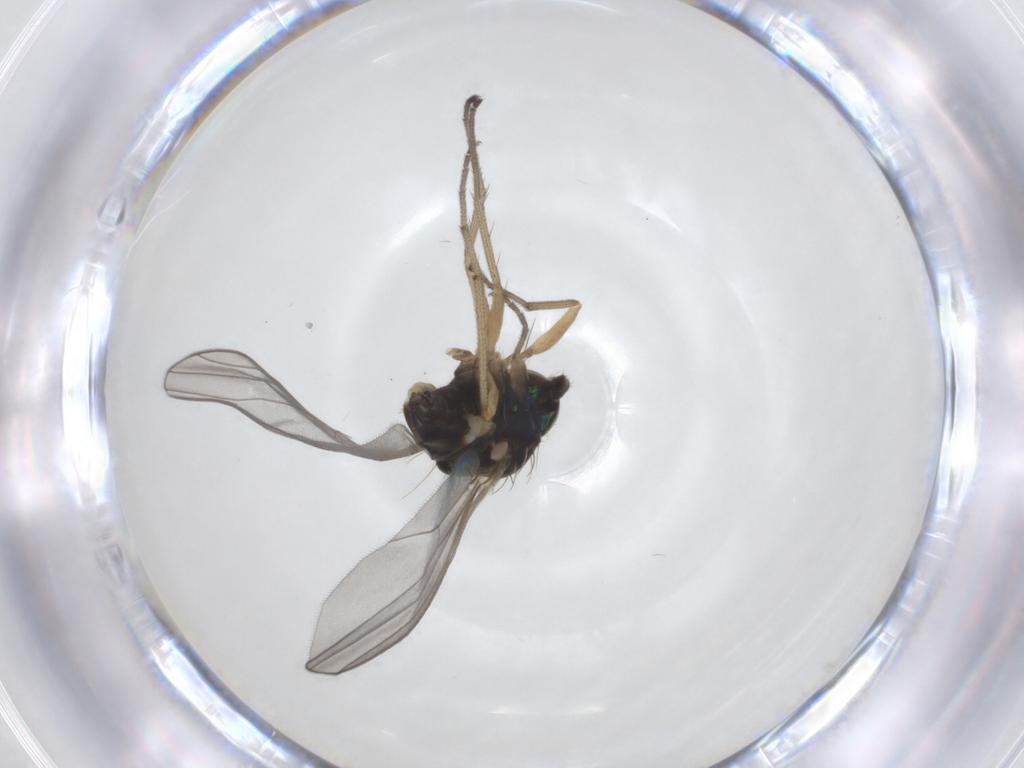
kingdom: Animalia
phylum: Arthropoda
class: Insecta
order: Diptera
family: Dolichopodidae
